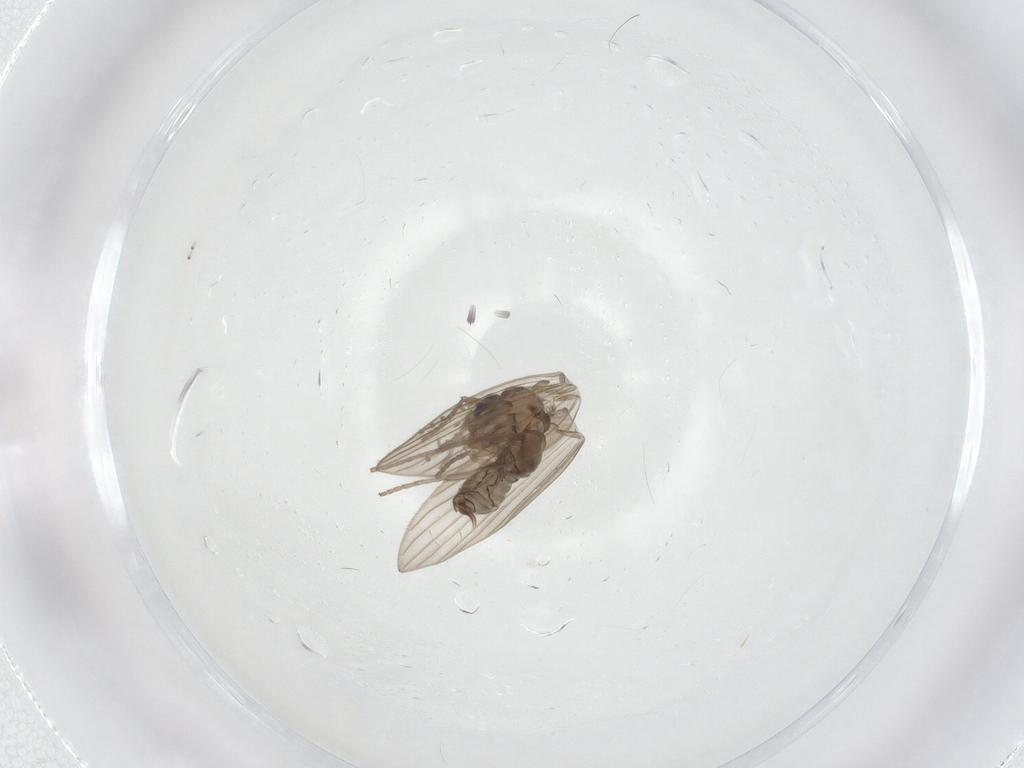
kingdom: Animalia
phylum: Arthropoda
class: Insecta
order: Diptera
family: Psychodidae
